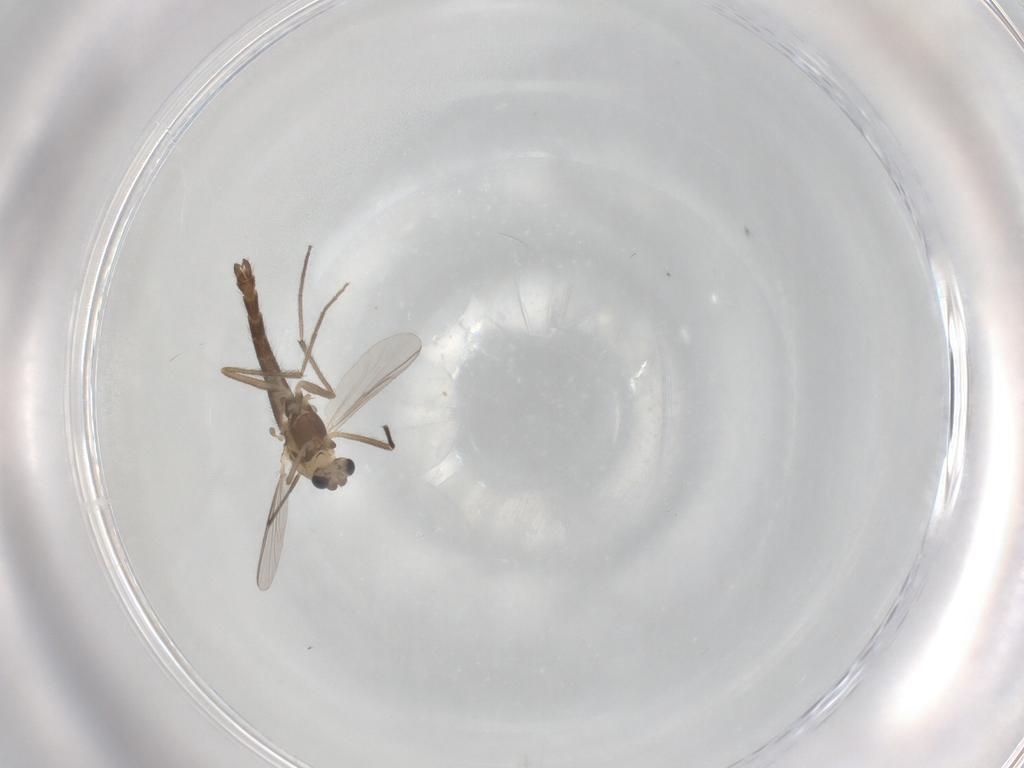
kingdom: Animalia
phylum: Arthropoda
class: Insecta
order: Diptera
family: Chironomidae
